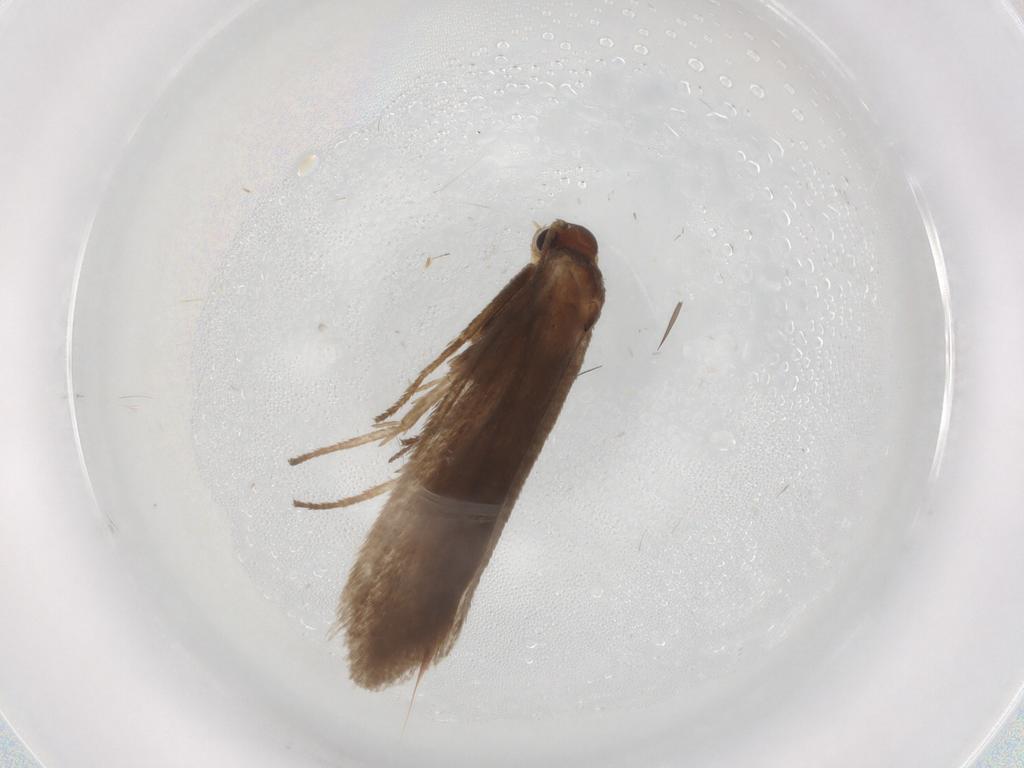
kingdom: Animalia
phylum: Arthropoda
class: Insecta
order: Lepidoptera
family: Limacodidae
